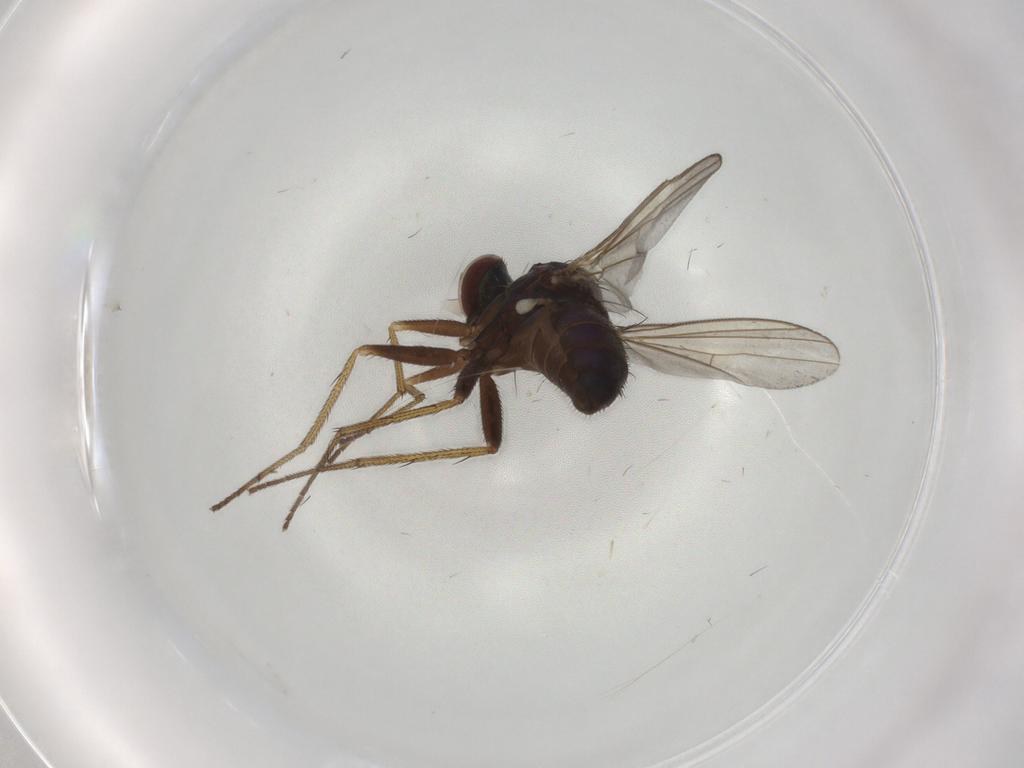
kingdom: Animalia
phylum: Arthropoda
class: Insecta
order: Diptera
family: Dolichopodidae
